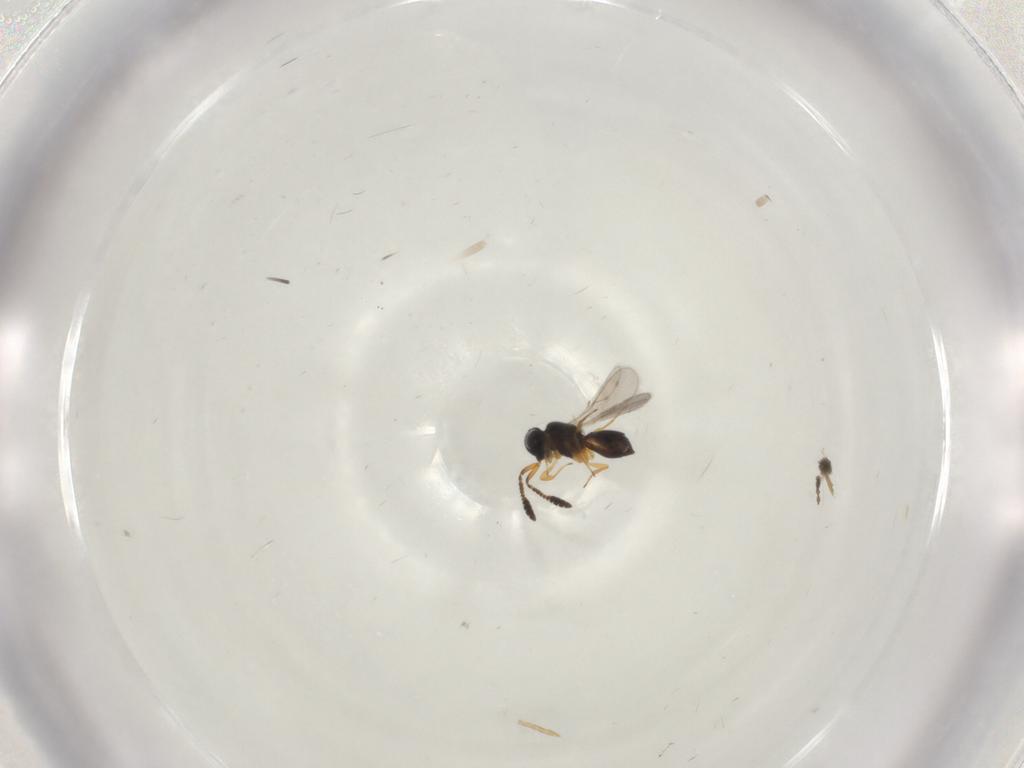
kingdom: Animalia
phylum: Arthropoda
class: Insecta
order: Hymenoptera
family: Scelionidae
